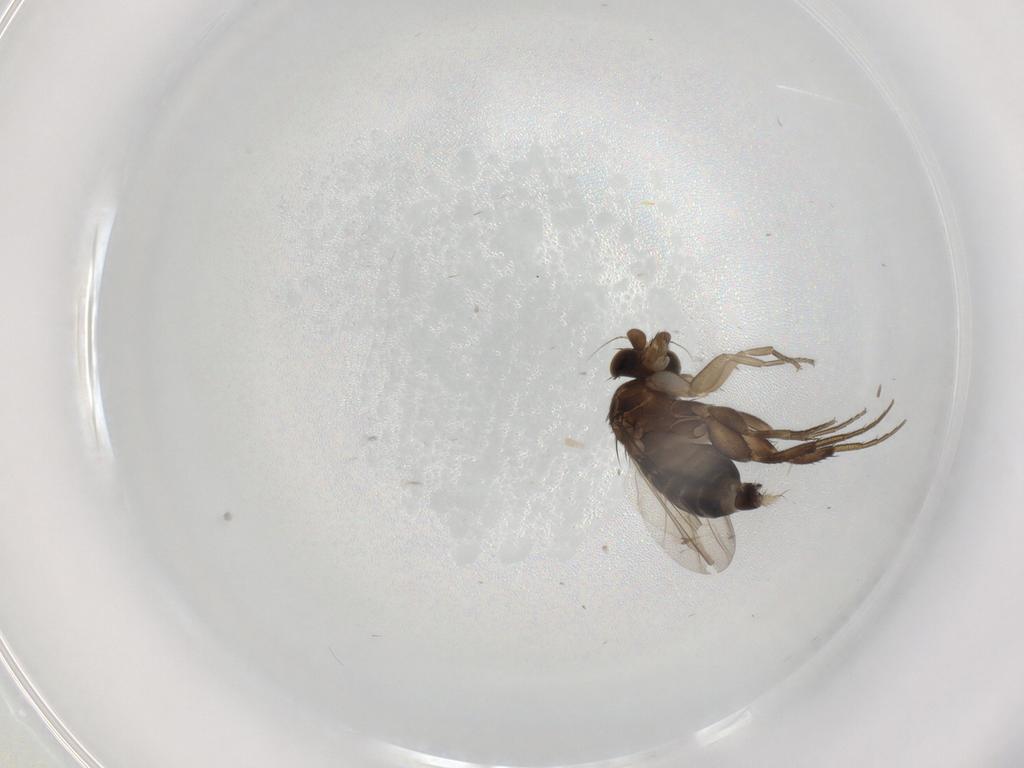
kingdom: Animalia
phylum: Arthropoda
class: Insecta
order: Diptera
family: Phoridae
